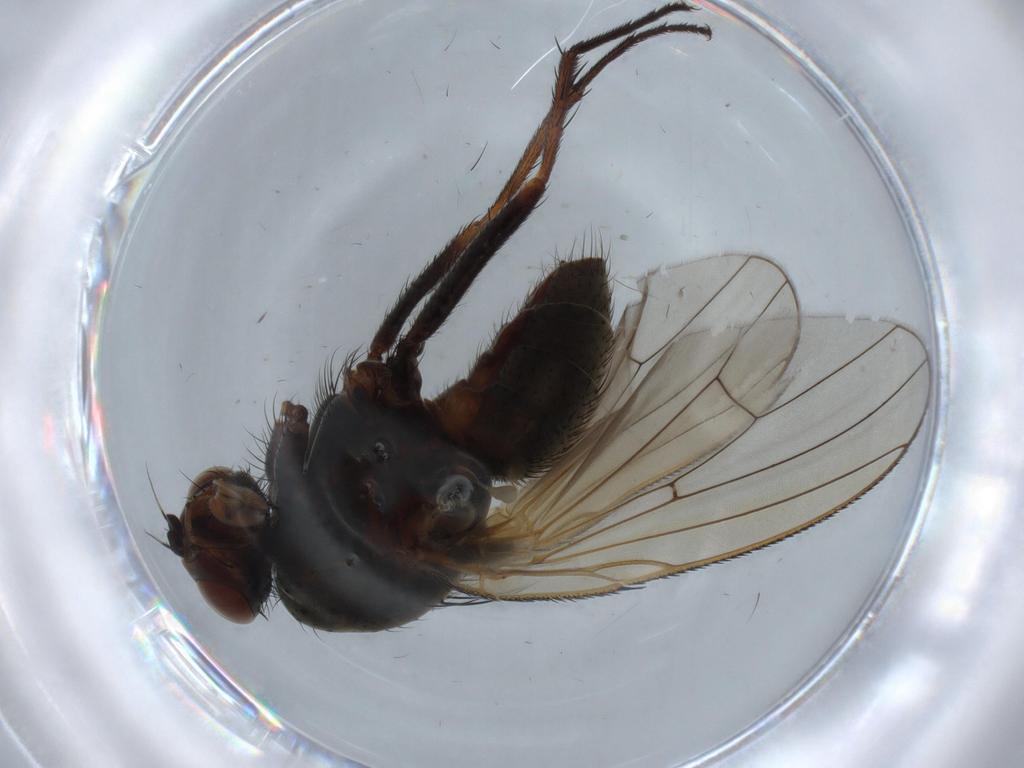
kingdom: Animalia
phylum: Arthropoda
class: Insecta
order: Diptera
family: Anthomyiidae
